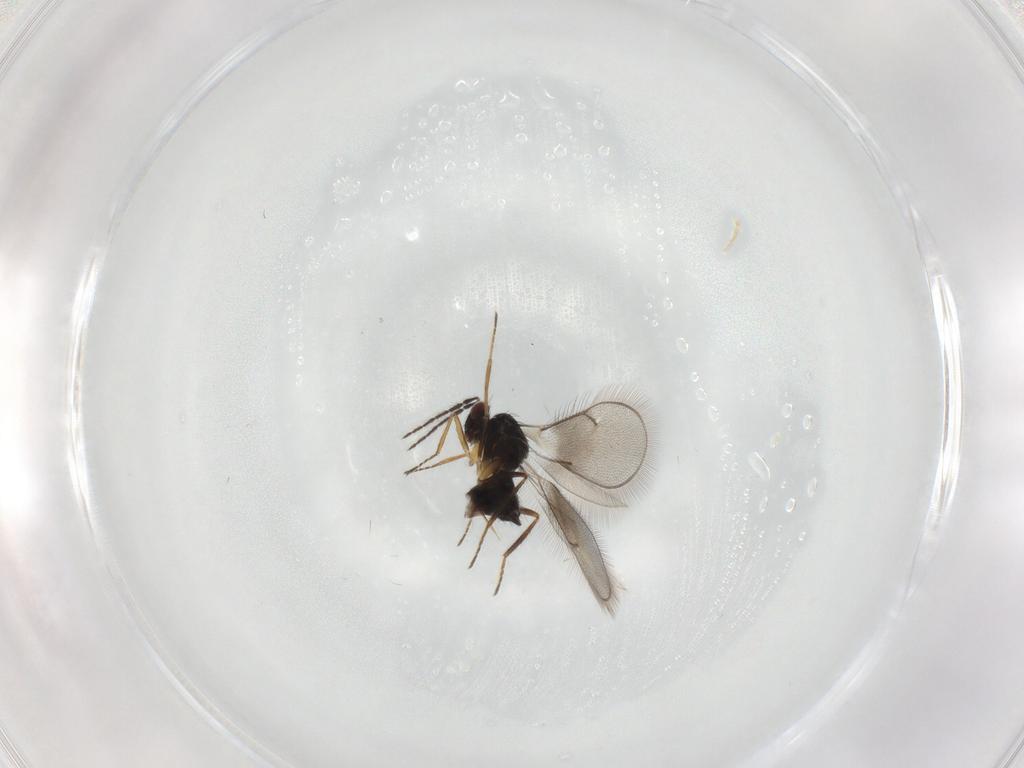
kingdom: Animalia
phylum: Arthropoda
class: Insecta
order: Hymenoptera
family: Eulophidae
